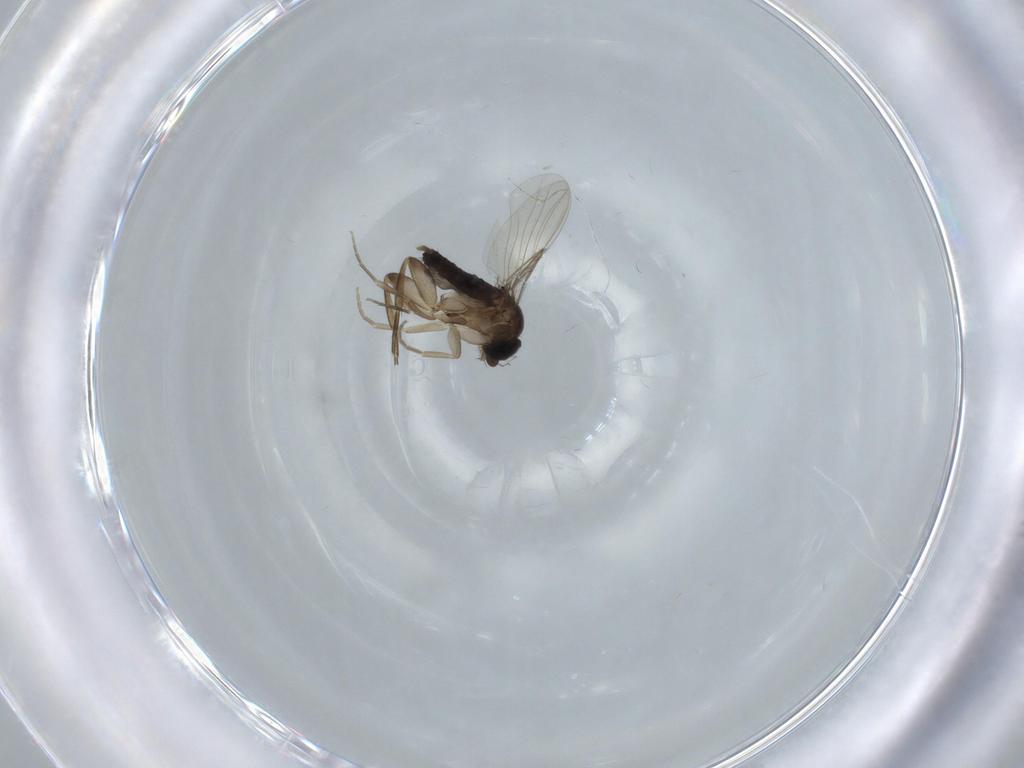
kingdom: Animalia
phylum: Arthropoda
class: Insecta
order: Diptera
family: Phoridae
